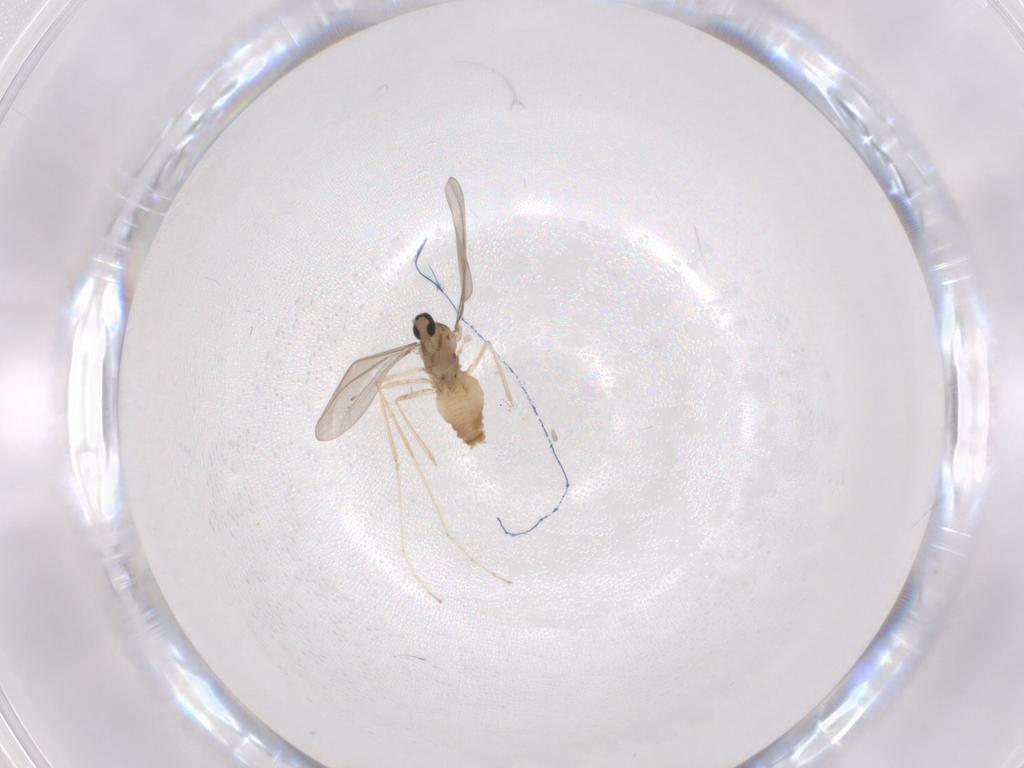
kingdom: Animalia
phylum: Arthropoda
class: Insecta
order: Diptera
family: Cecidomyiidae
